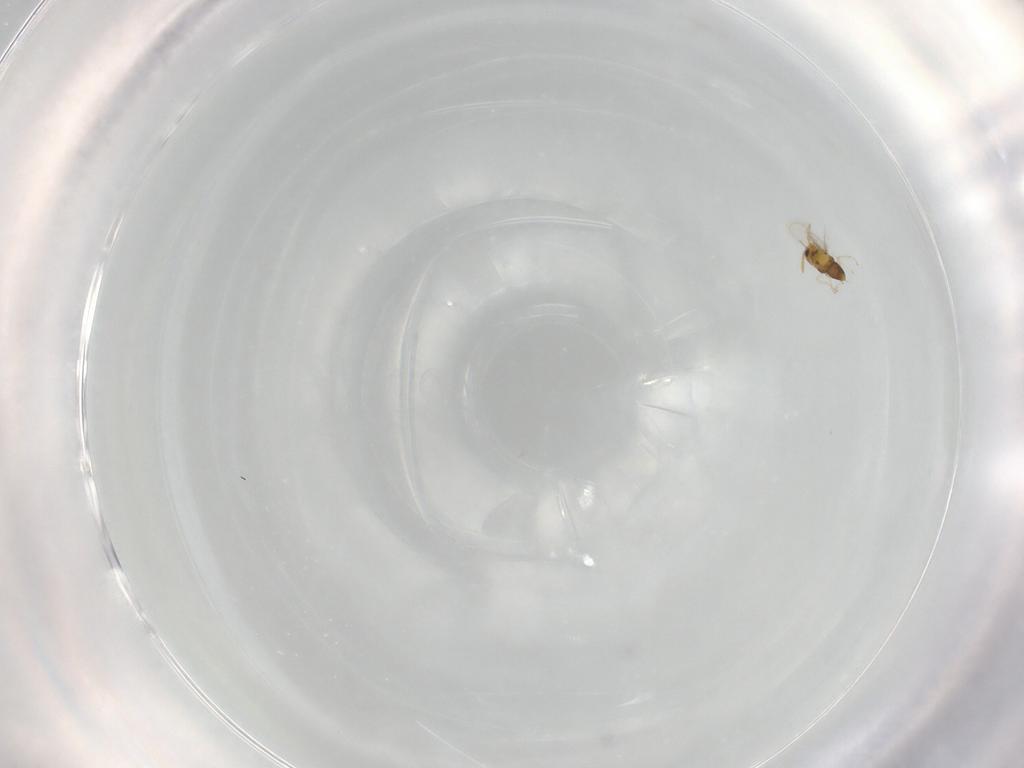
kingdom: Animalia
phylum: Arthropoda
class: Insecta
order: Hymenoptera
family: Aphelinidae
